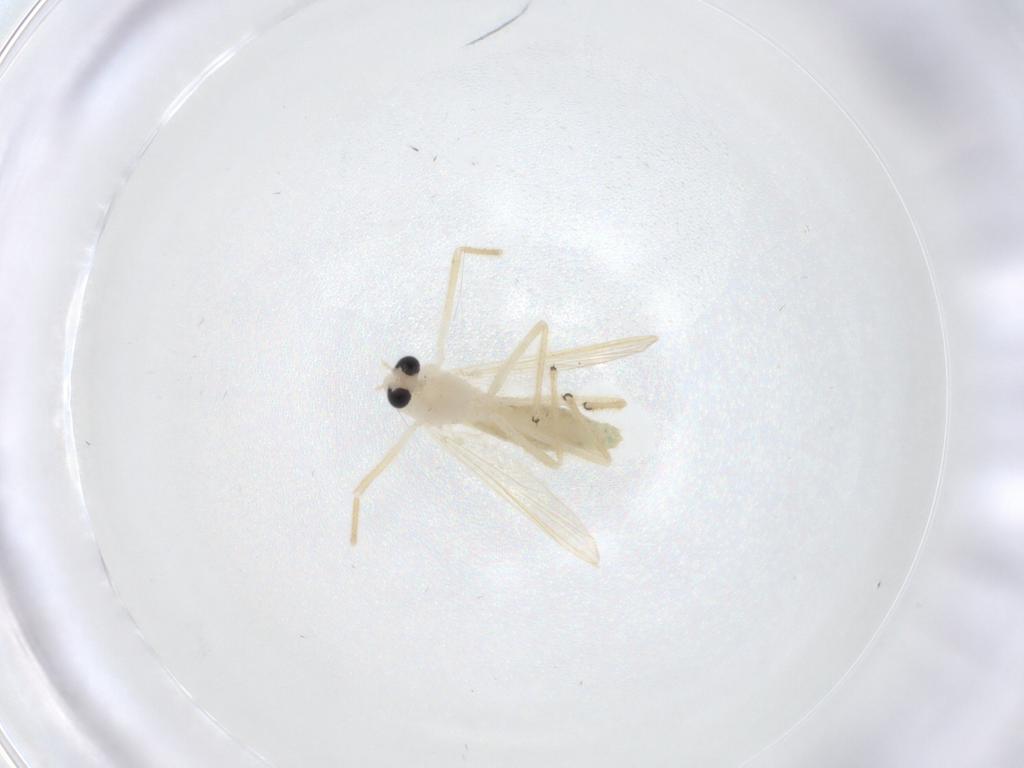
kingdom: Animalia
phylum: Arthropoda
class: Insecta
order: Diptera
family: Chironomidae
